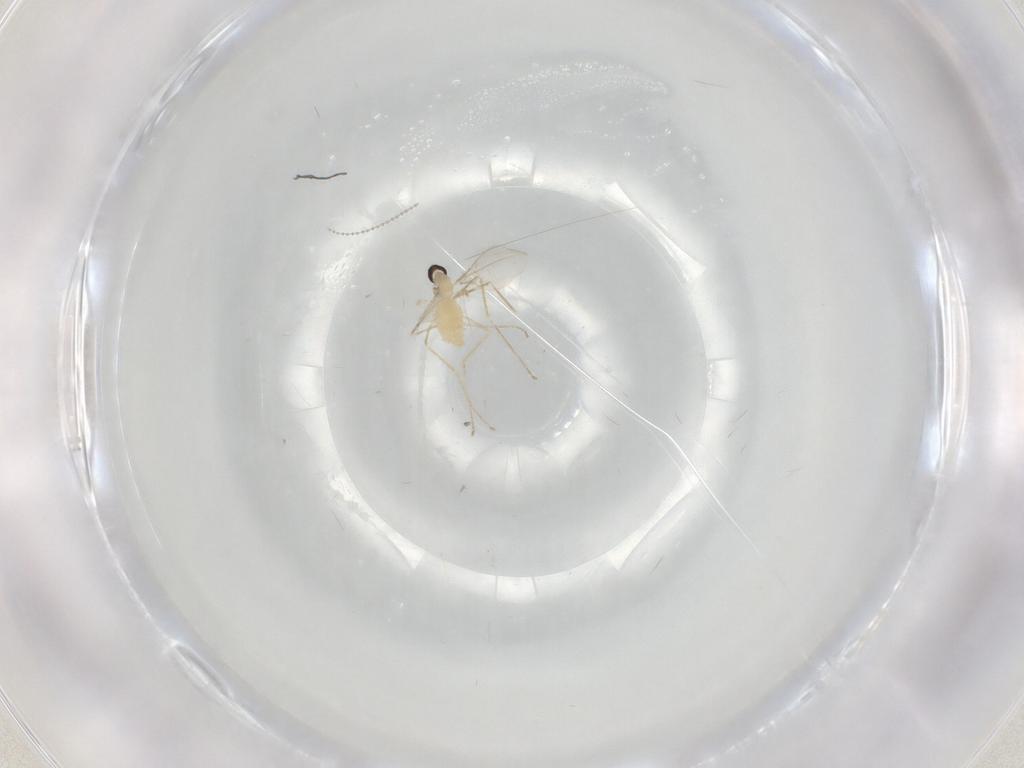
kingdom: Animalia
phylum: Arthropoda
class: Insecta
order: Diptera
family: Cecidomyiidae
